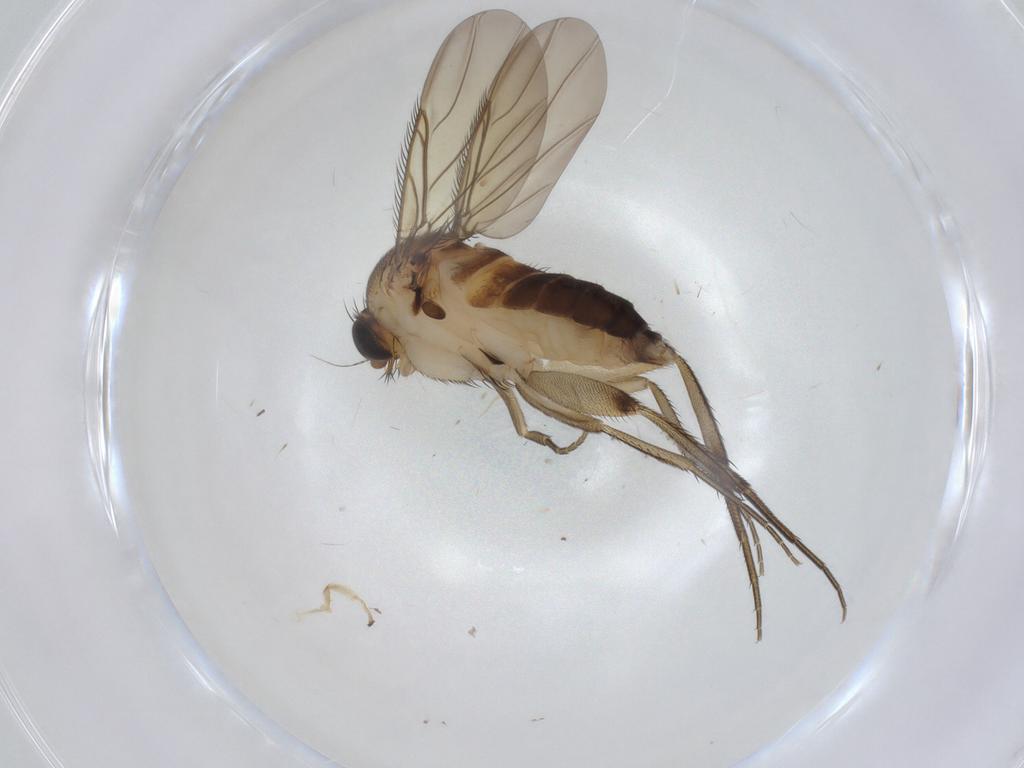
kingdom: Animalia
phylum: Arthropoda
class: Insecta
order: Diptera
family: Phoridae
